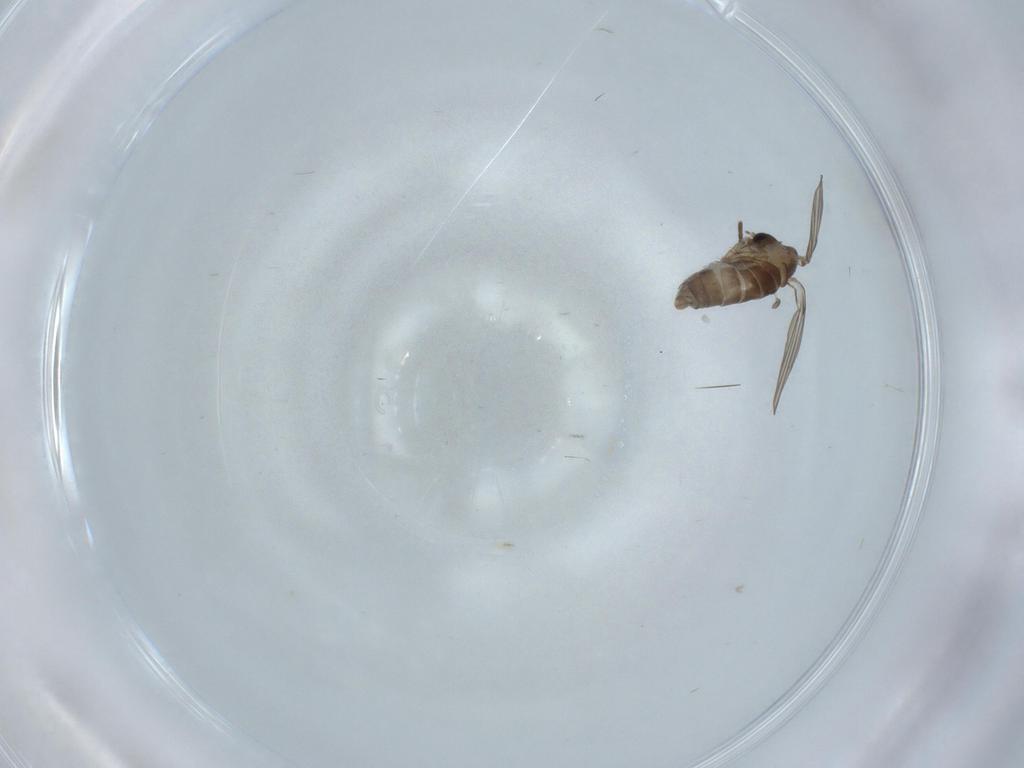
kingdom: Animalia
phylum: Arthropoda
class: Insecta
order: Diptera
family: Psychodidae
